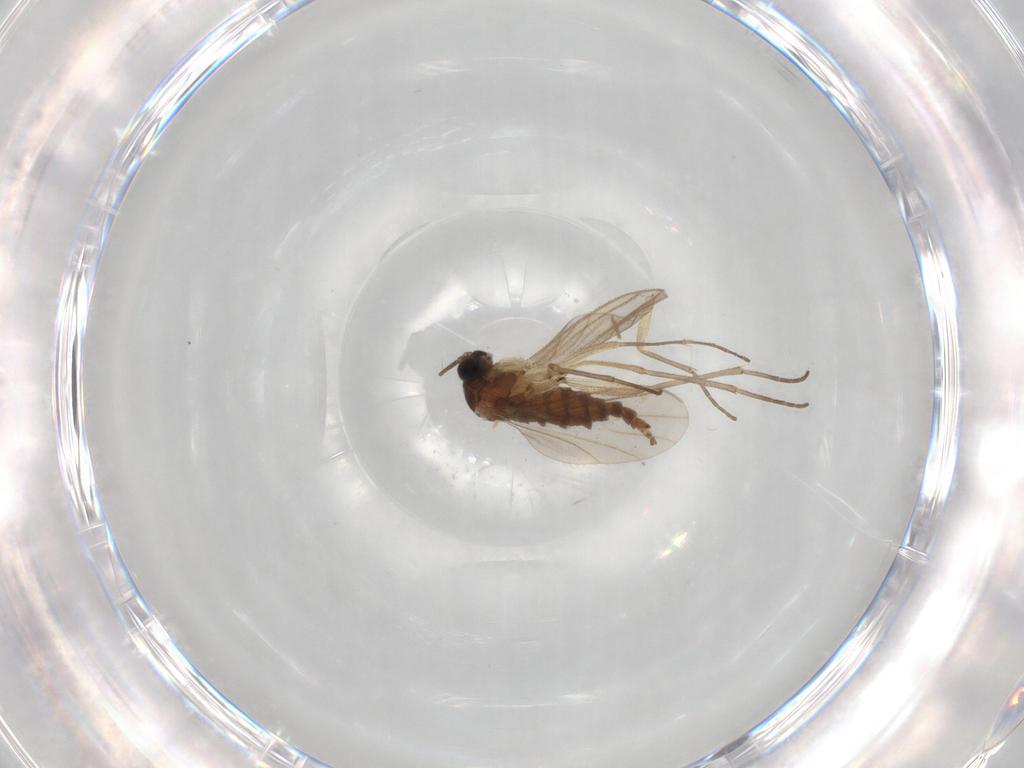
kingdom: Animalia
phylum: Arthropoda
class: Insecta
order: Diptera
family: Sciaridae
